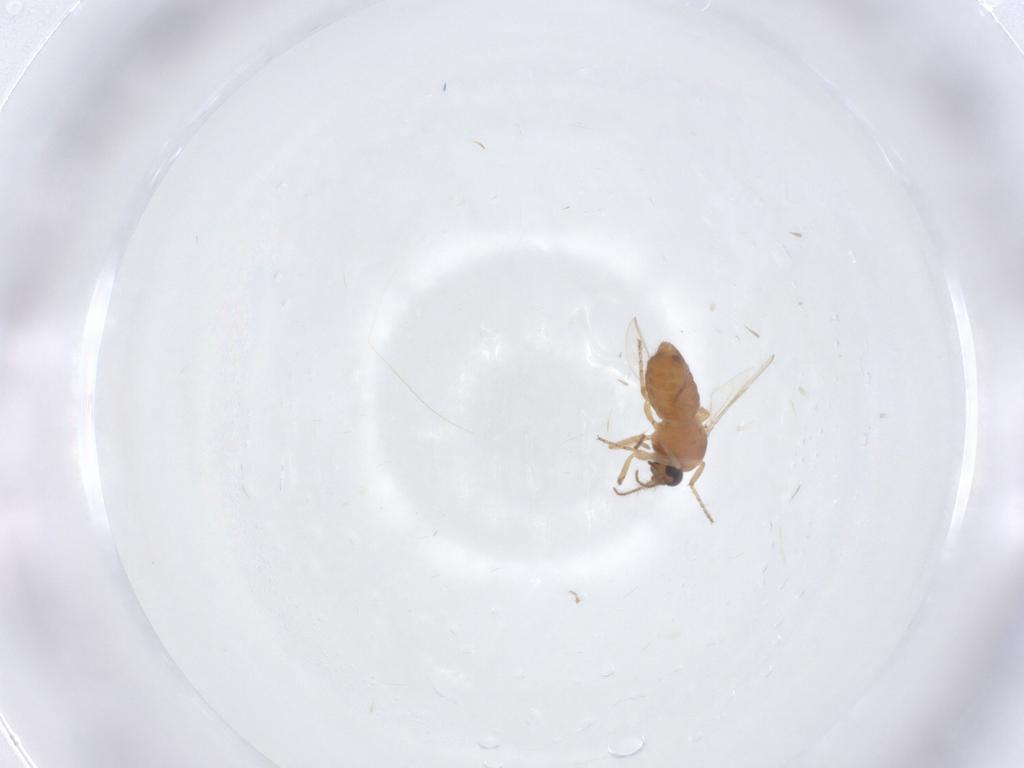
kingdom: Animalia
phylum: Arthropoda
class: Insecta
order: Diptera
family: Ceratopogonidae
